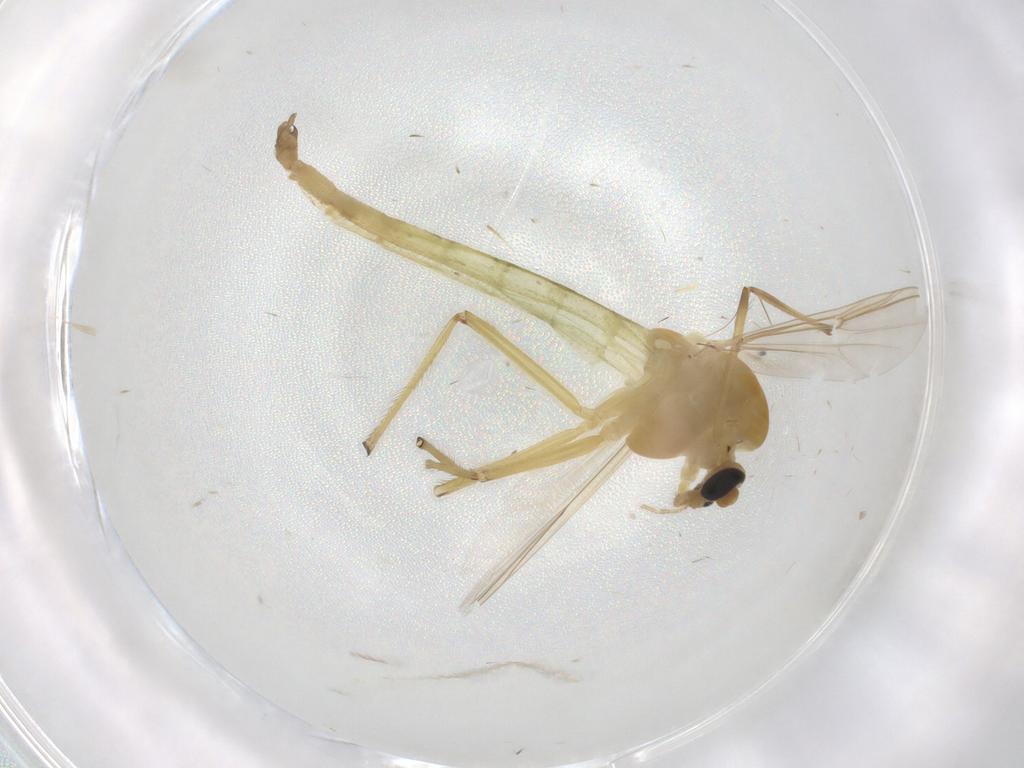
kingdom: Animalia
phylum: Arthropoda
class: Insecta
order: Diptera
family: Chironomidae
